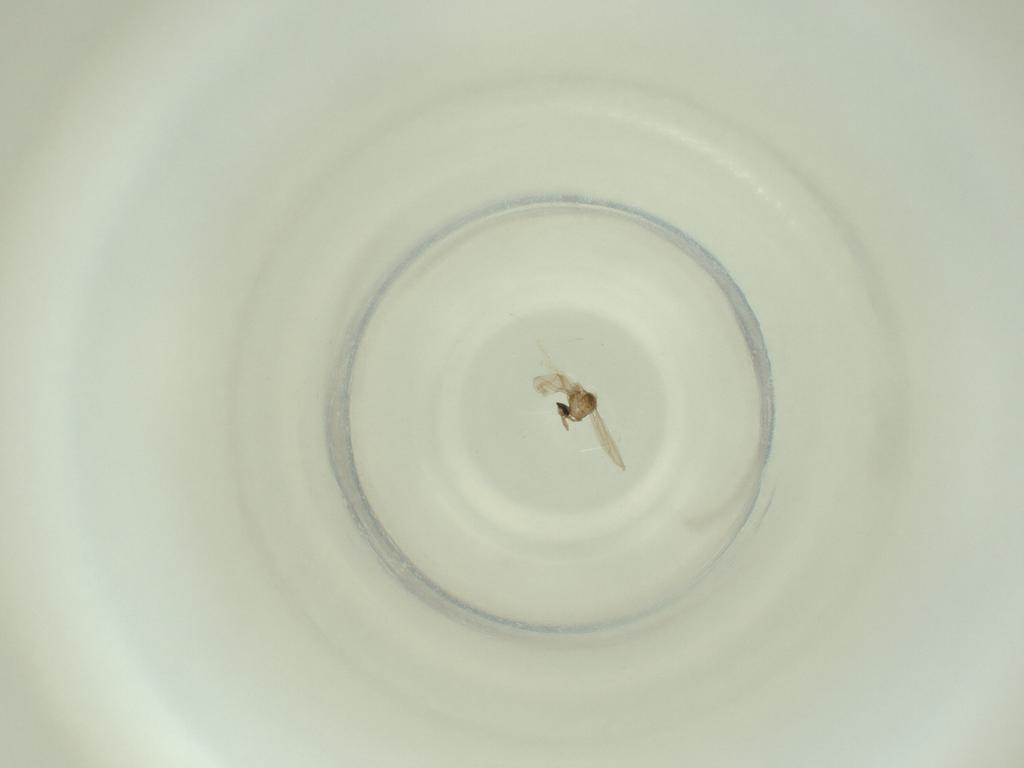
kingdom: Animalia
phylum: Arthropoda
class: Insecta
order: Diptera
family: Cecidomyiidae
